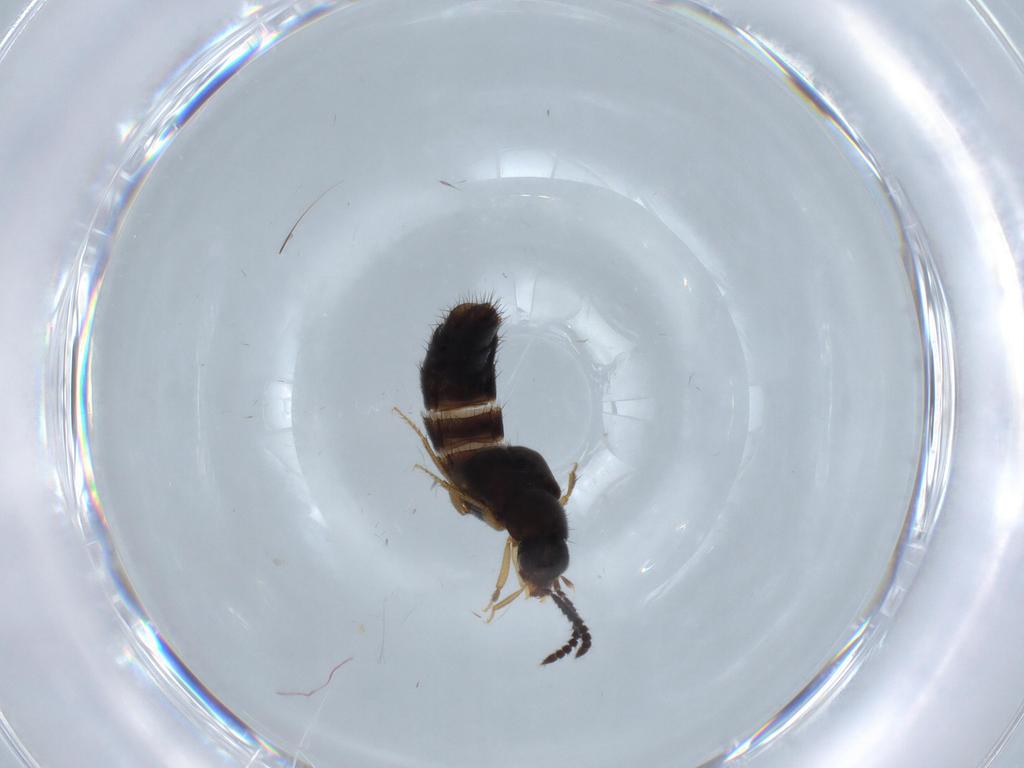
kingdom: Animalia
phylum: Arthropoda
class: Insecta
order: Coleoptera
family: Staphylinidae
